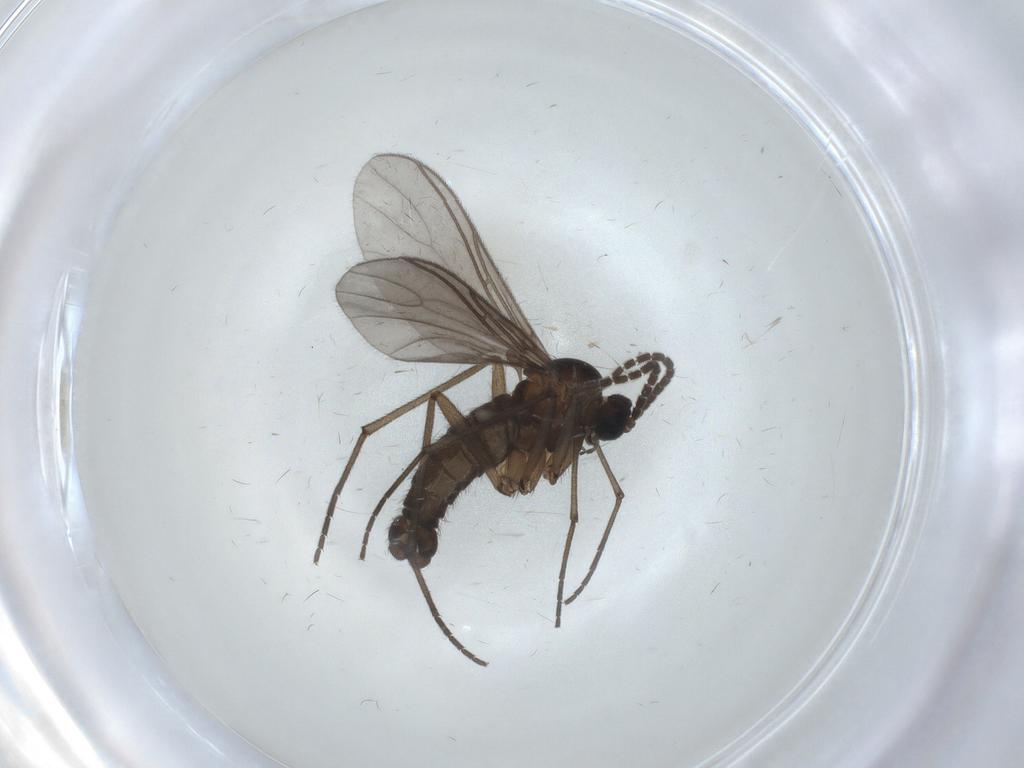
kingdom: Animalia
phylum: Arthropoda
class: Insecta
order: Diptera
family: Sciaridae
